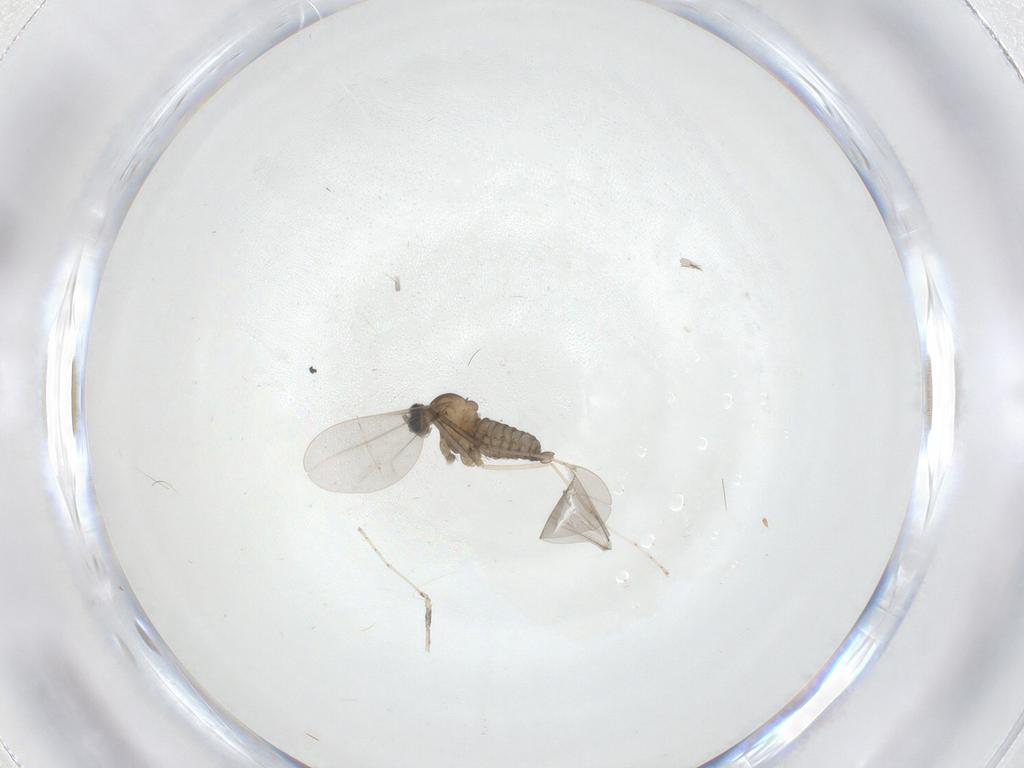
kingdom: Animalia
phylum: Arthropoda
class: Insecta
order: Diptera
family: Cecidomyiidae
